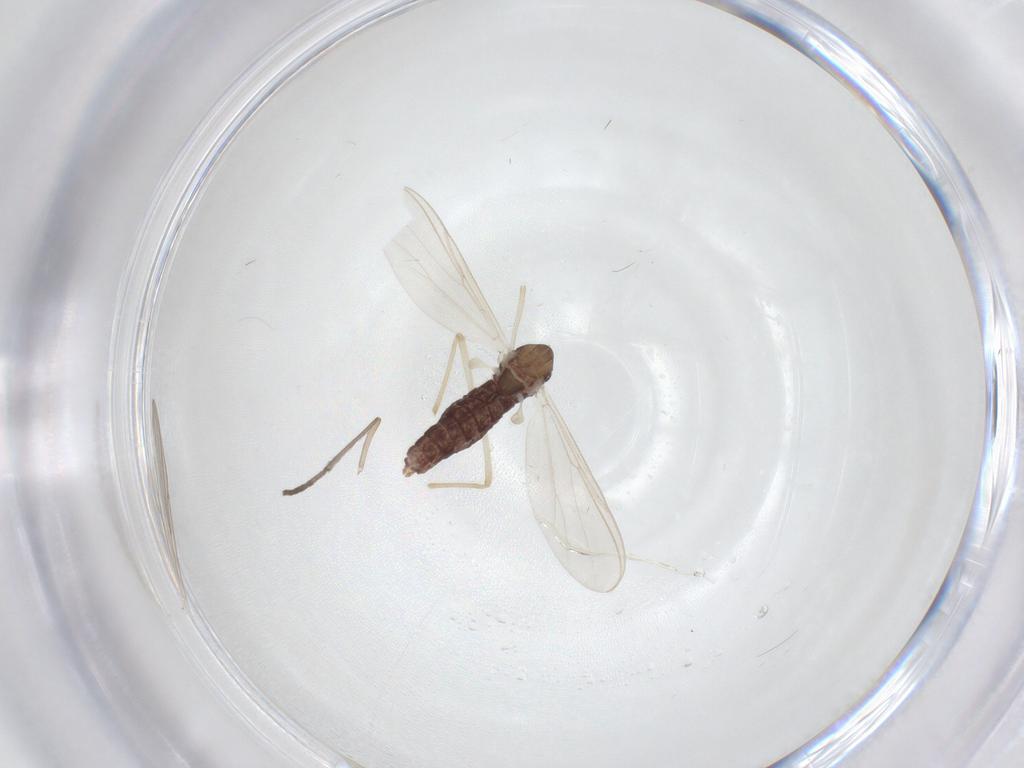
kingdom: Animalia
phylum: Arthropoda
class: Insecta
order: Diptera
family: Chironomidae
